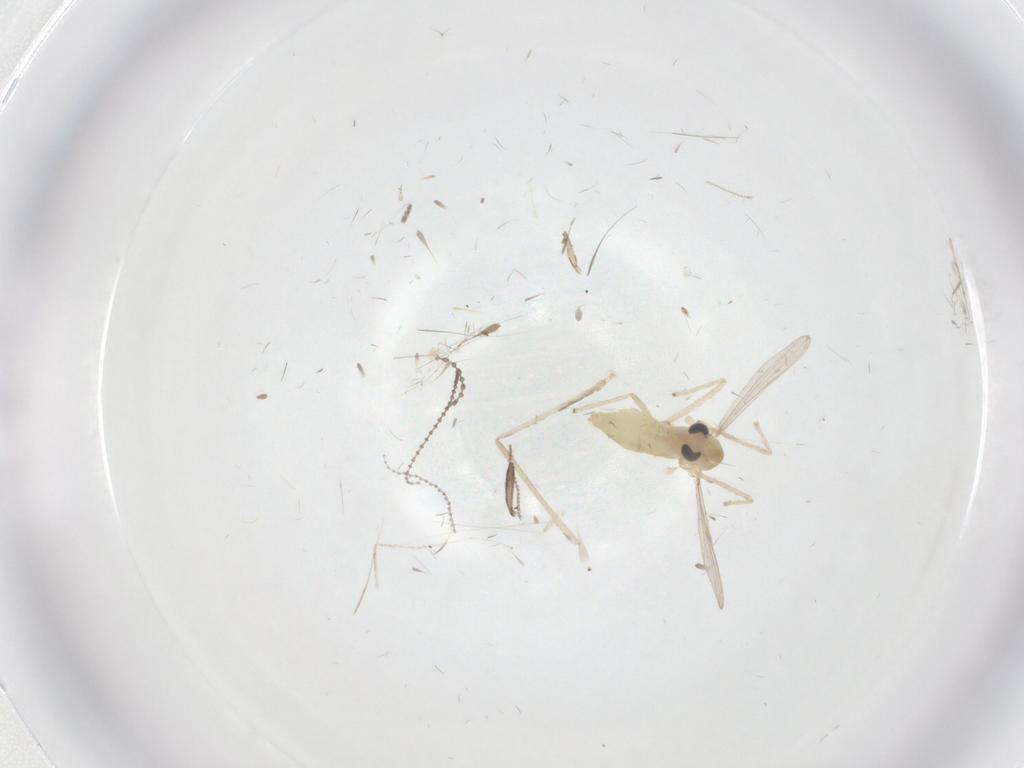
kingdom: Animalia
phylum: Arthropoda
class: Insecta
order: Diptera
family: Chironomidae
